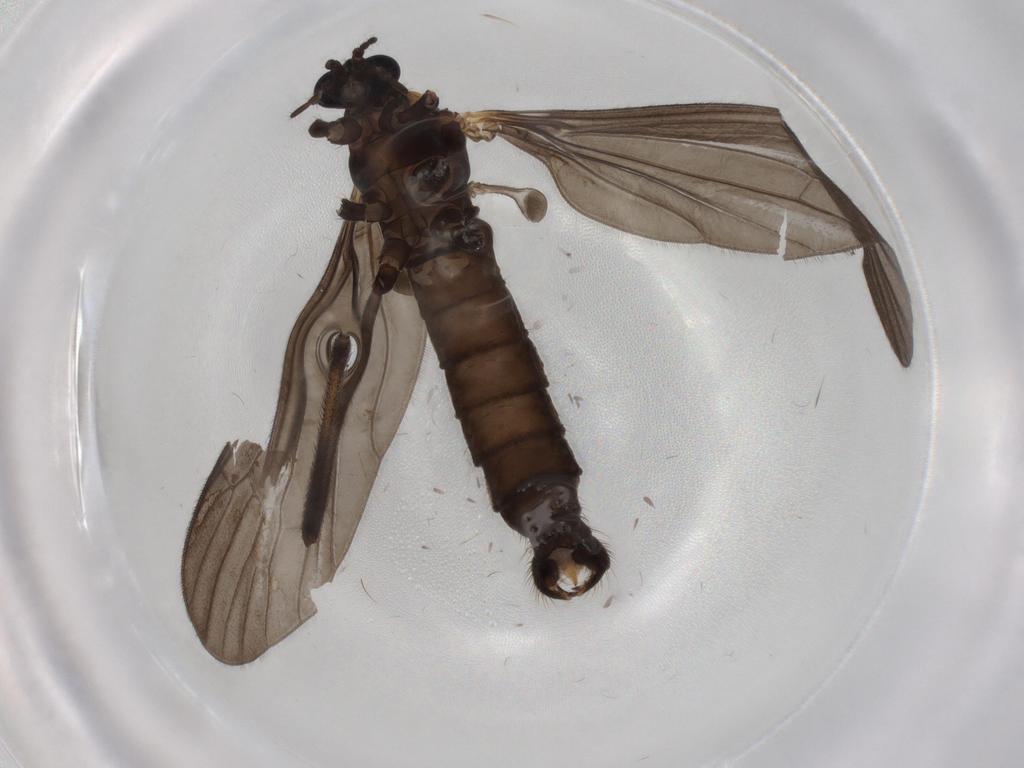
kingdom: Animalia
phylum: Arthropoda
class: Insecta
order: Diptera
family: Limoniidae
